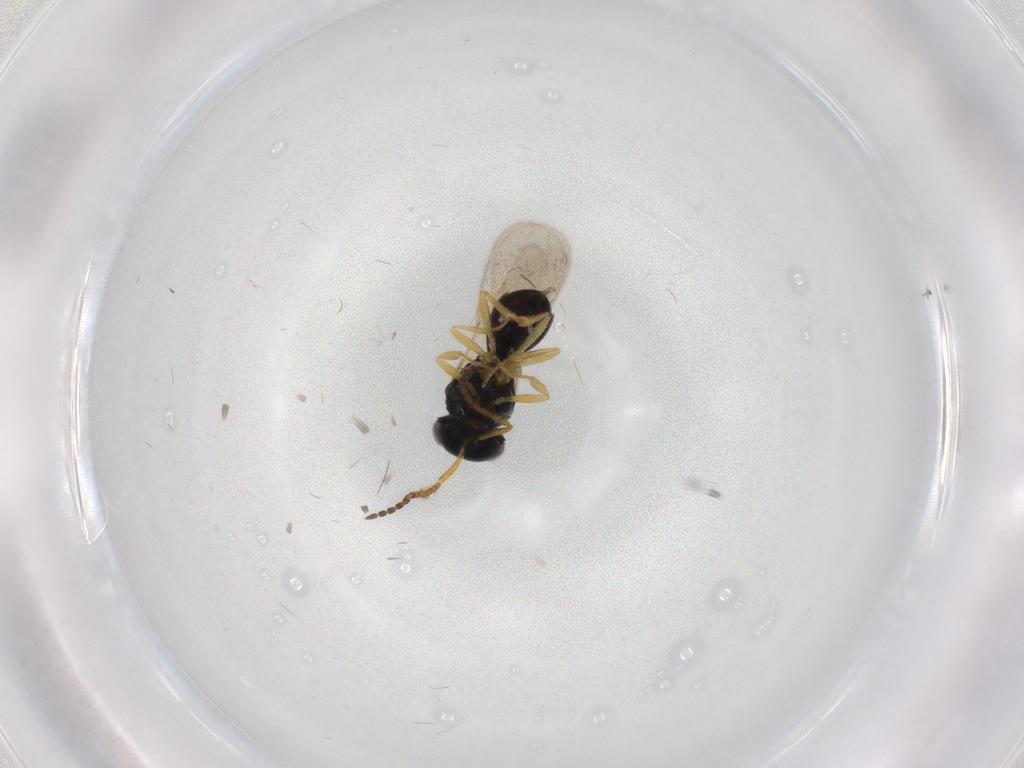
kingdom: Animalia
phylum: Arthropoda
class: Insecta
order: Hymenoptera
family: Scelionidae
